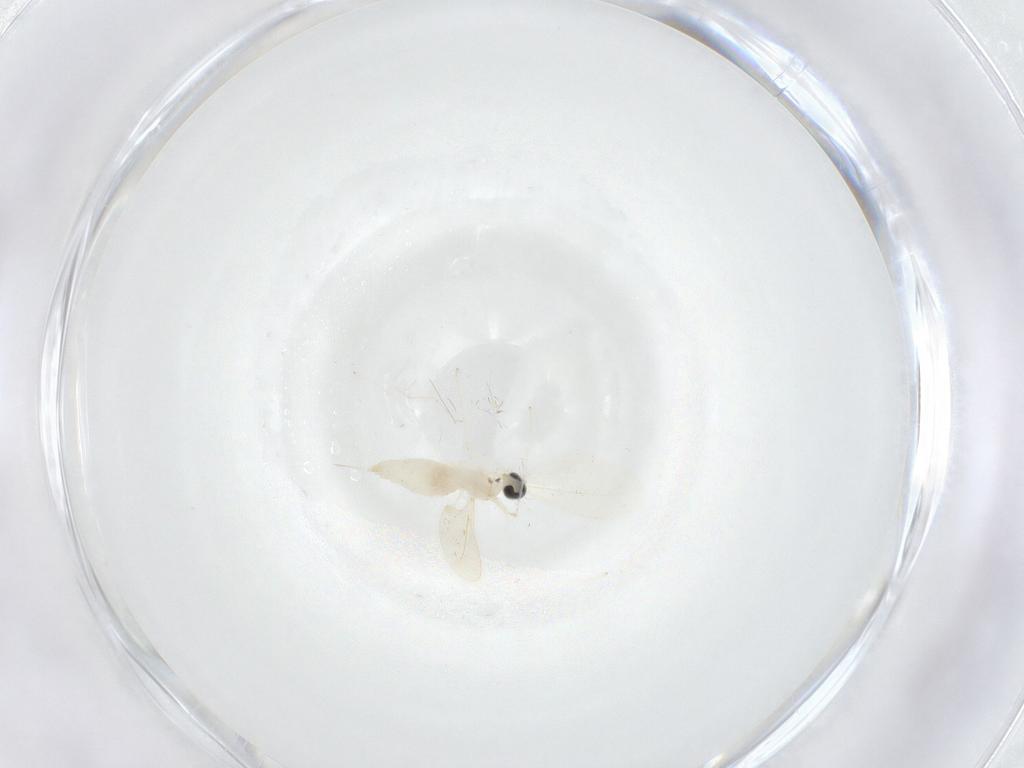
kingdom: Animalia
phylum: Arthropoda
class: Insecta
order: Diptera
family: Cecidomyiidae
